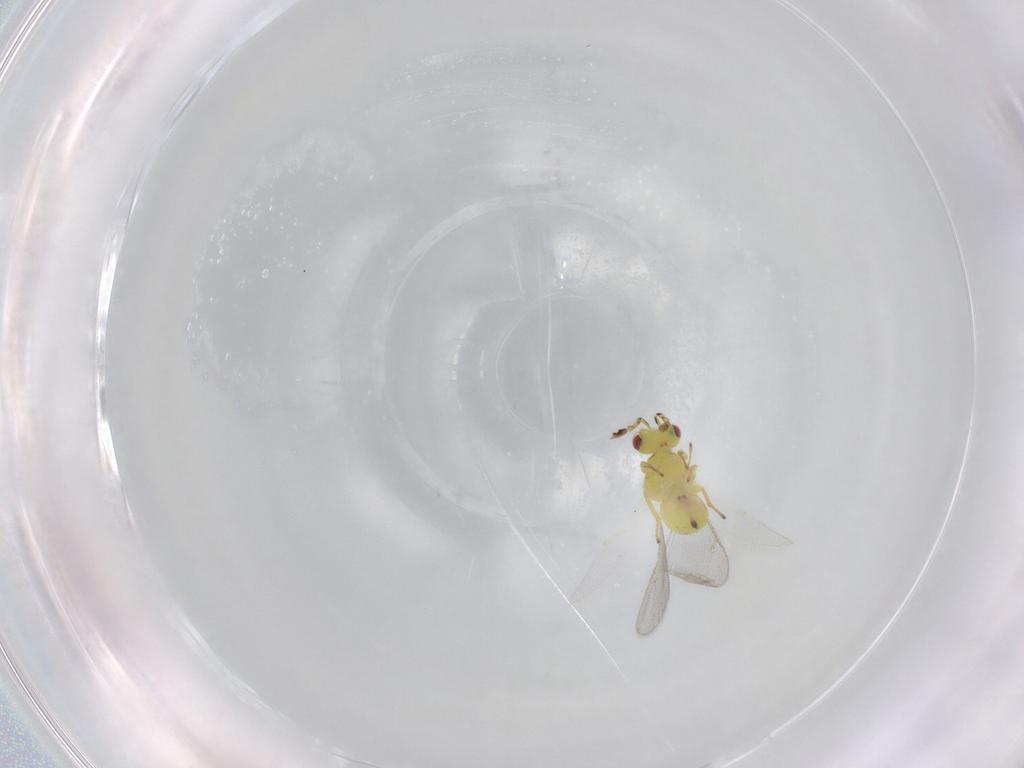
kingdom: Animalia
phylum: Arthropoda
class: Insecta
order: Hymenoptera
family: Eulophidae
